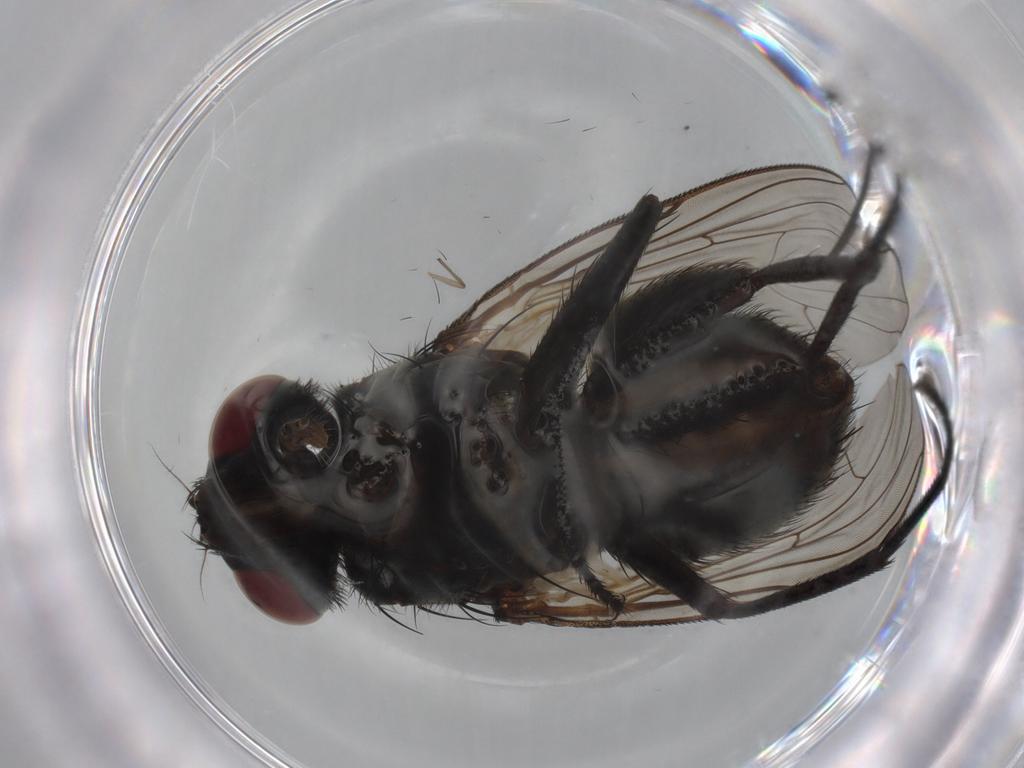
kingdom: Animalia
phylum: Arthropoda
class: Insecta
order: Diptera
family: Muscidae
